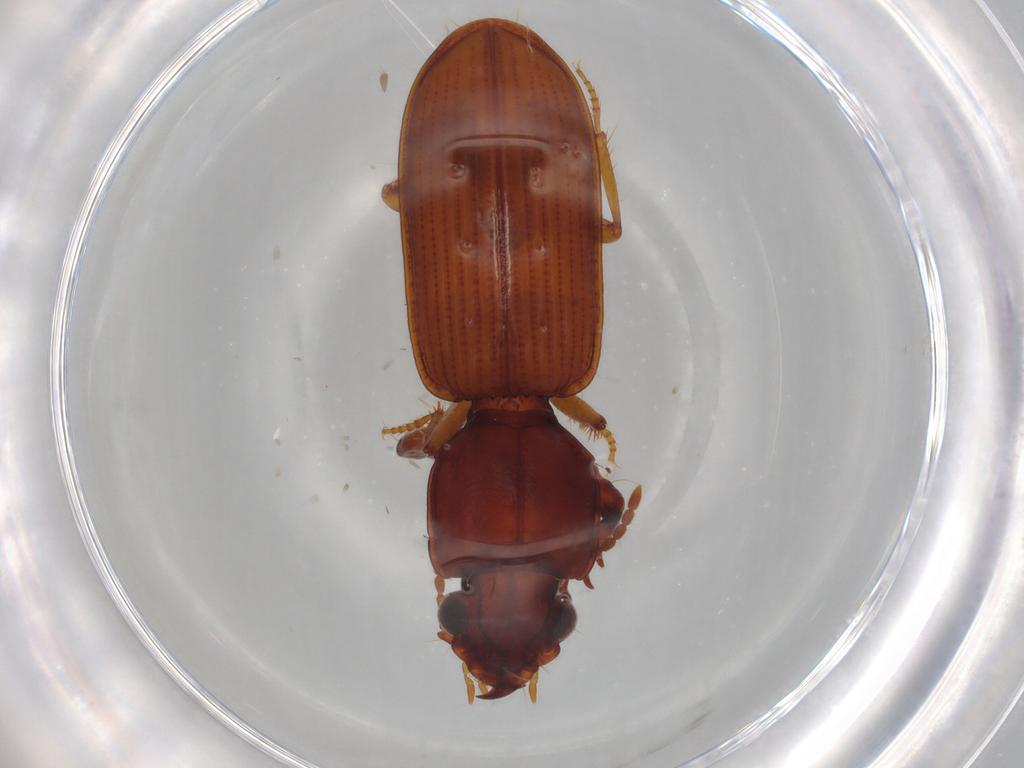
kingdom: Animalia
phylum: Arthropoda
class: Insecta
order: Coleoptera
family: Carabidae
